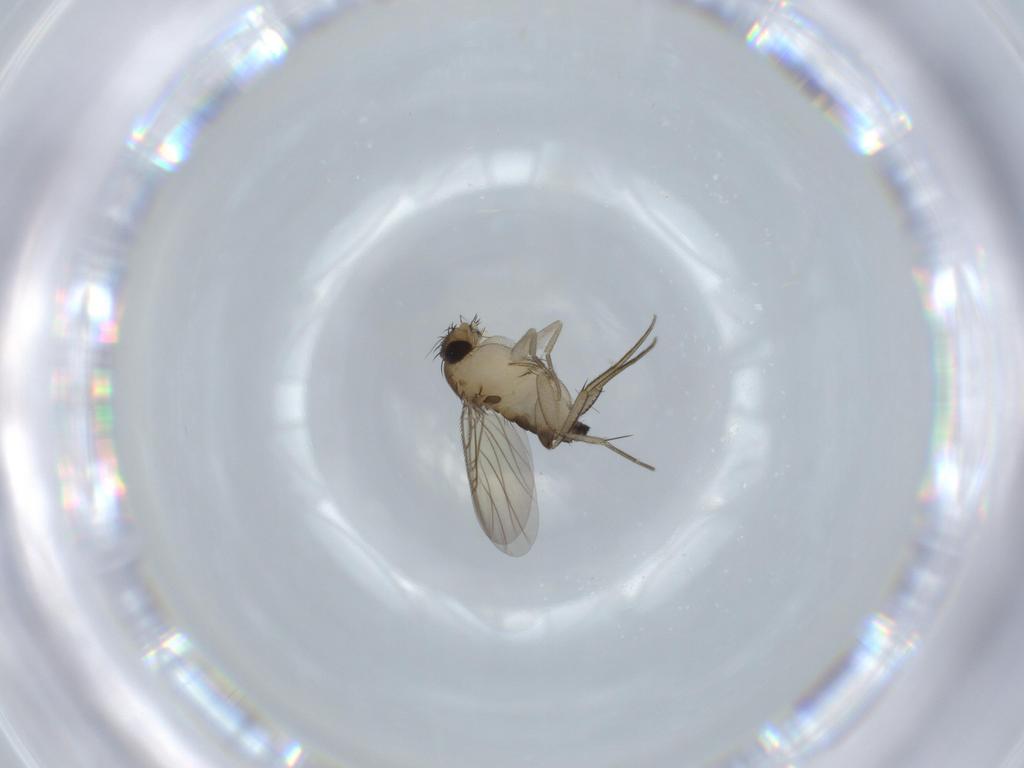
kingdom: Animalia
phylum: Arthropoda
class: Insecta
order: Diptera
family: Phoridae
